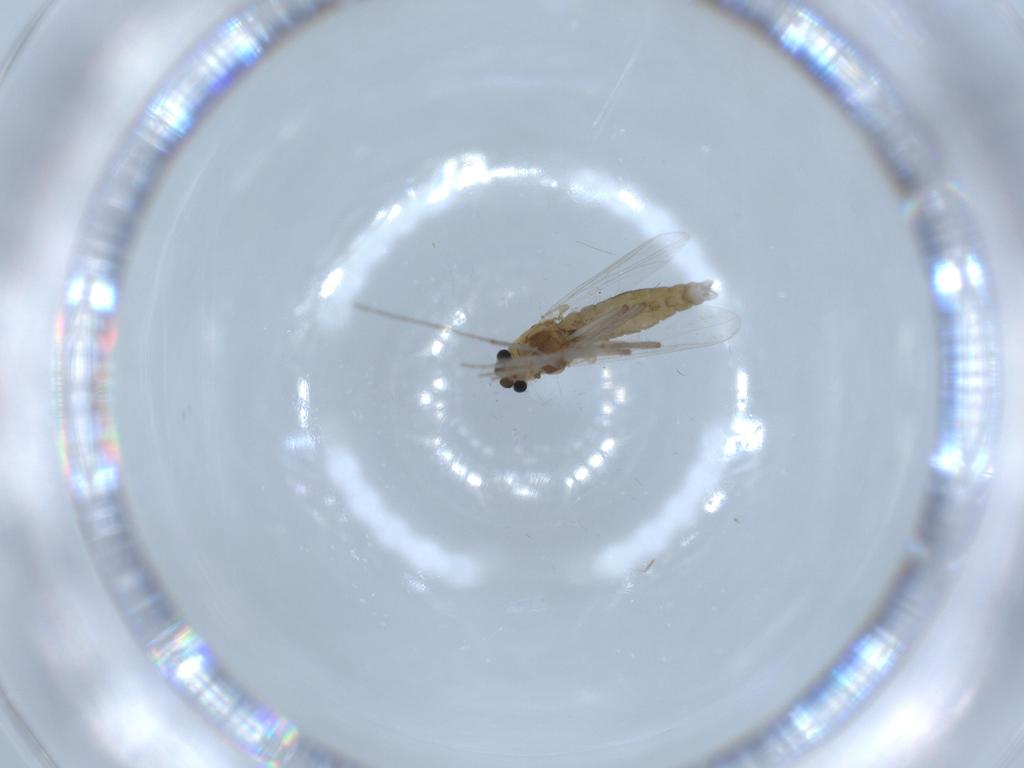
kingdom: Animalia
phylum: Arthropoda
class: Insecta
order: Diptera
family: Chironomidae
